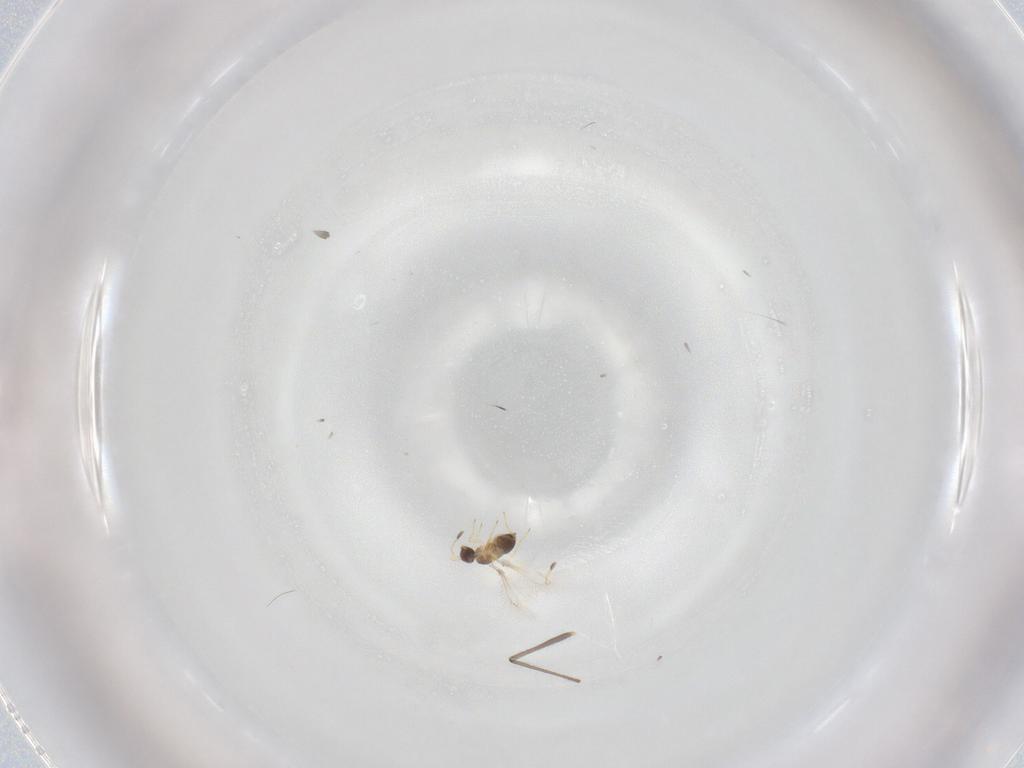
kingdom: Animalia
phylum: Arthropoda
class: Insecta
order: Hymenoptera
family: Mymaridae
